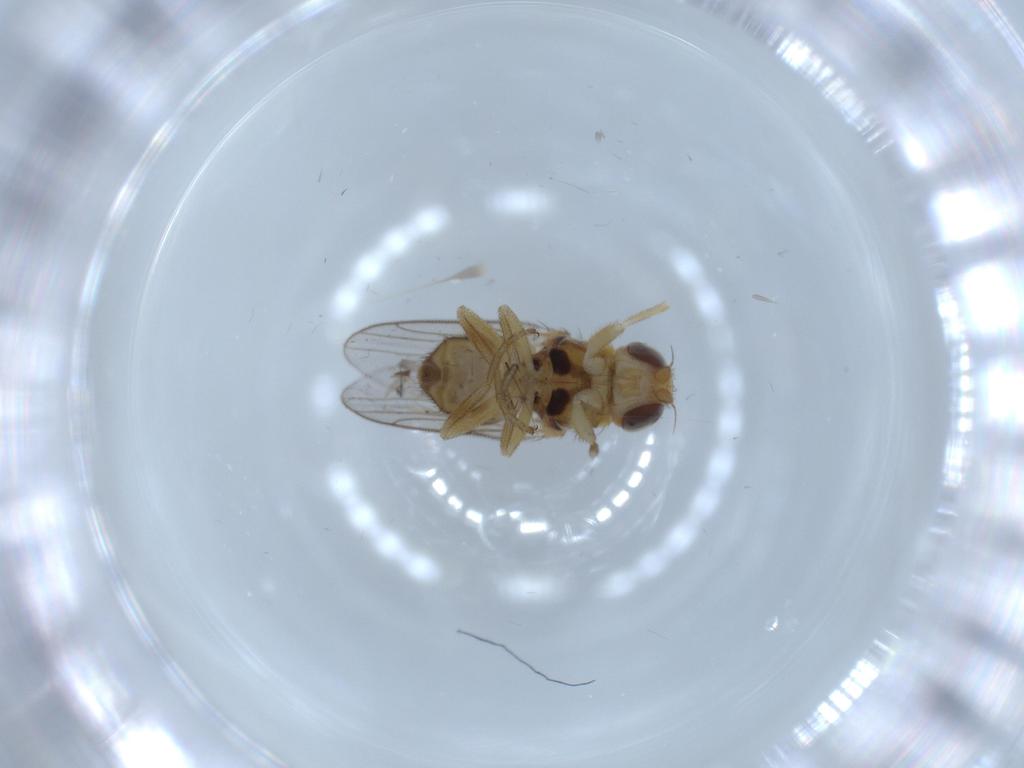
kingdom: Animalia
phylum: Arthropoda
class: Insecta
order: Diptera
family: Chloropidae
